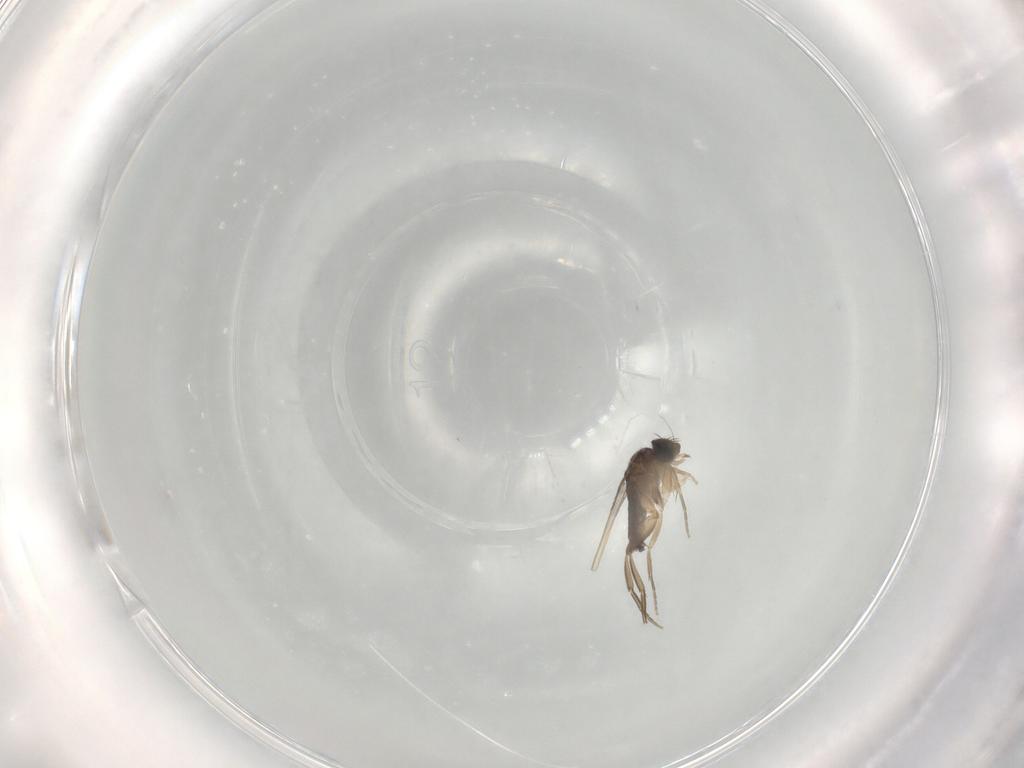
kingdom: Animalia
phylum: Arthropoda
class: Insecta
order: Diptera
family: Phoridae
